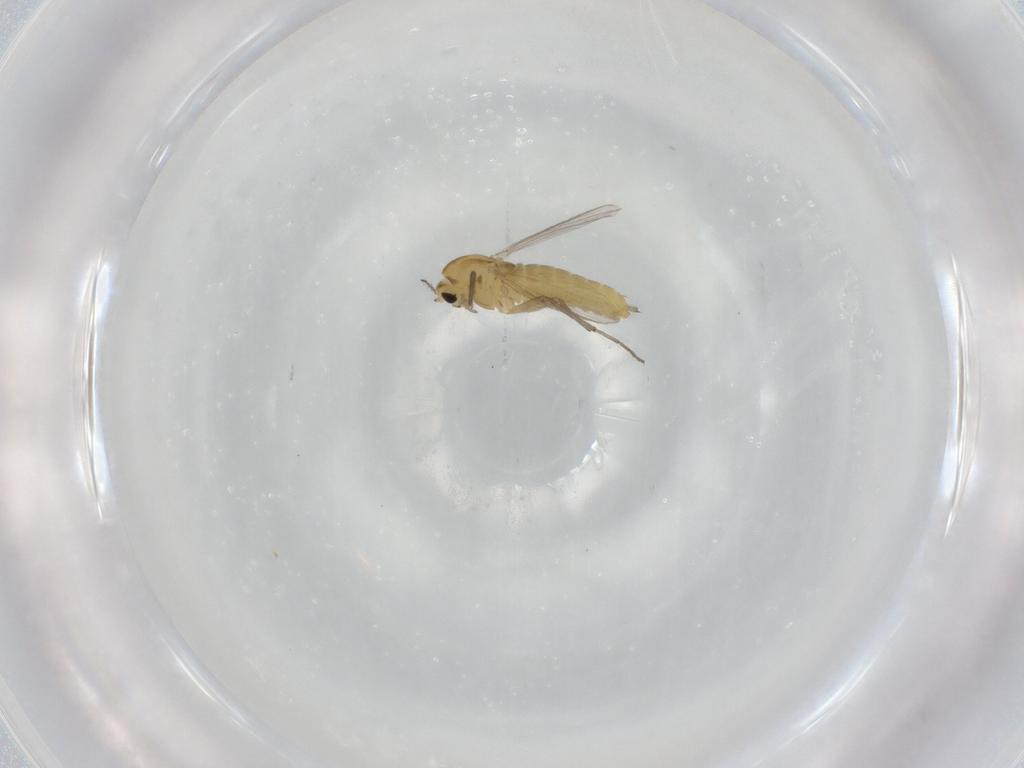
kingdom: Animalia
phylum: Arthropoda
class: Insecta
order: Diptera
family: Chironomidae
